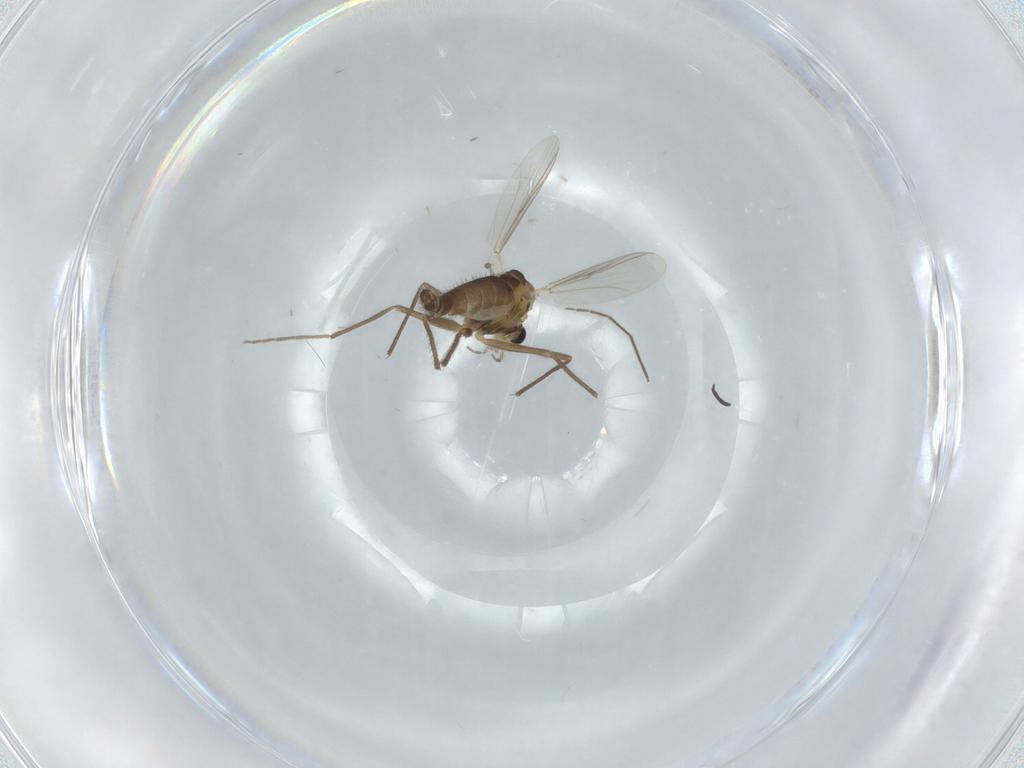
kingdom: Animalia
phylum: Arthropoda
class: Insecta
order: Diptera
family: Chironomidae
